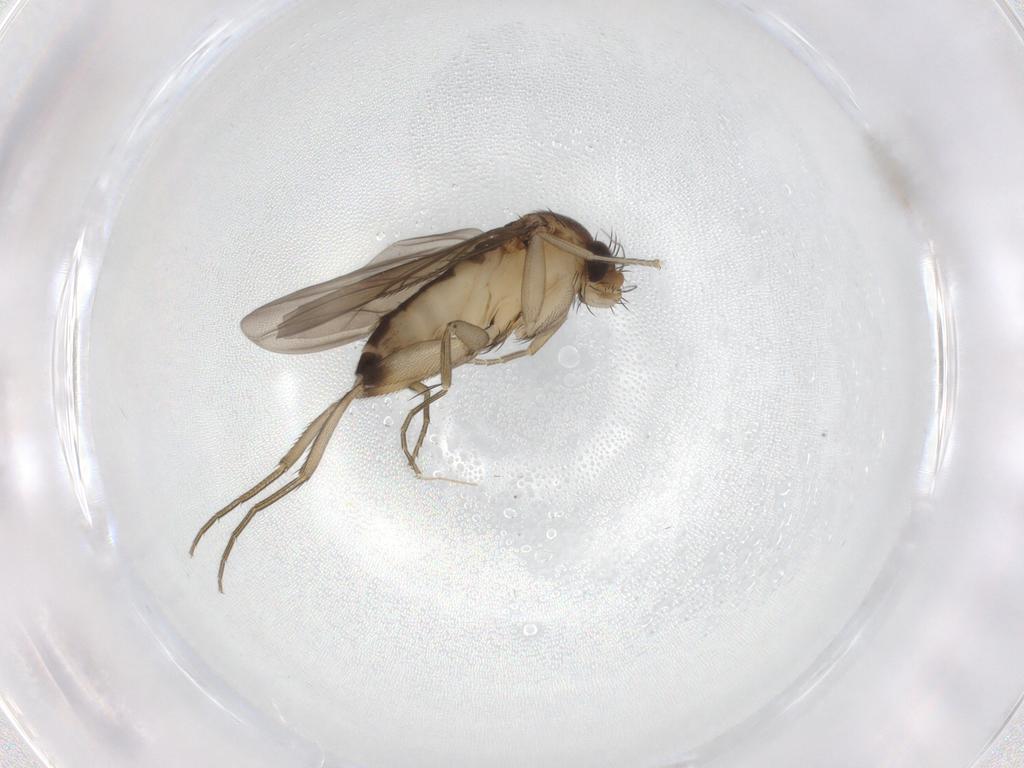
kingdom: Animalia
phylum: Arthropoda
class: Insecta
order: Diptera
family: Phoridae
